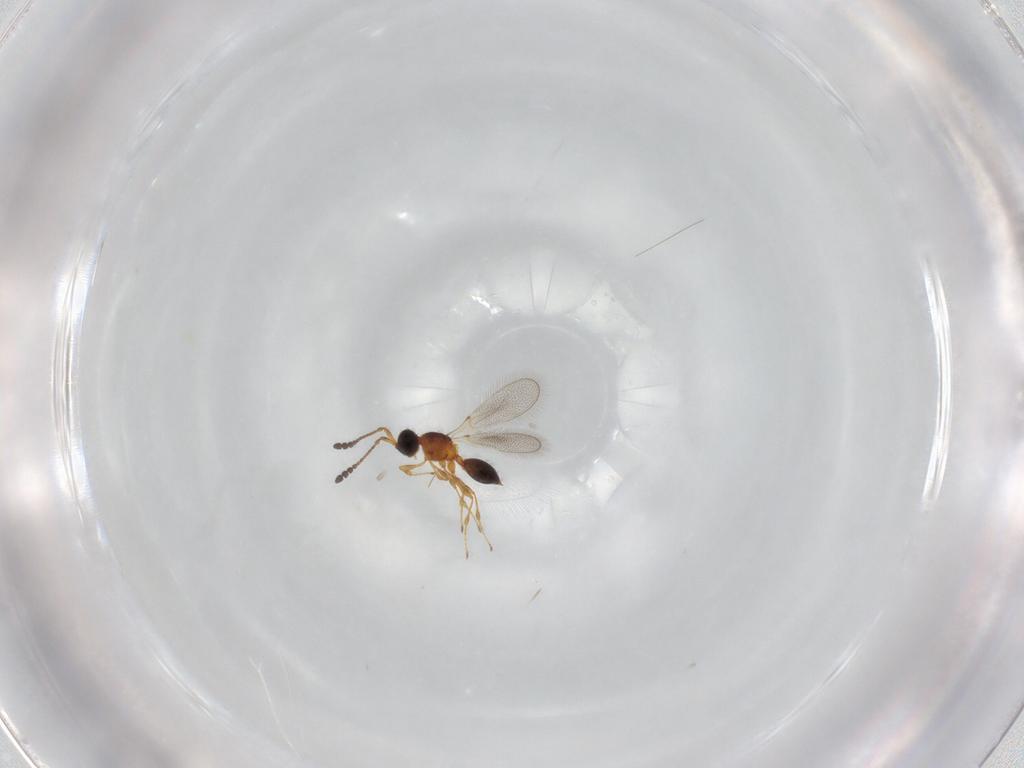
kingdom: Animalia
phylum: Arthropoda
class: Insecta
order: Hymenoptera
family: Diapriidae
